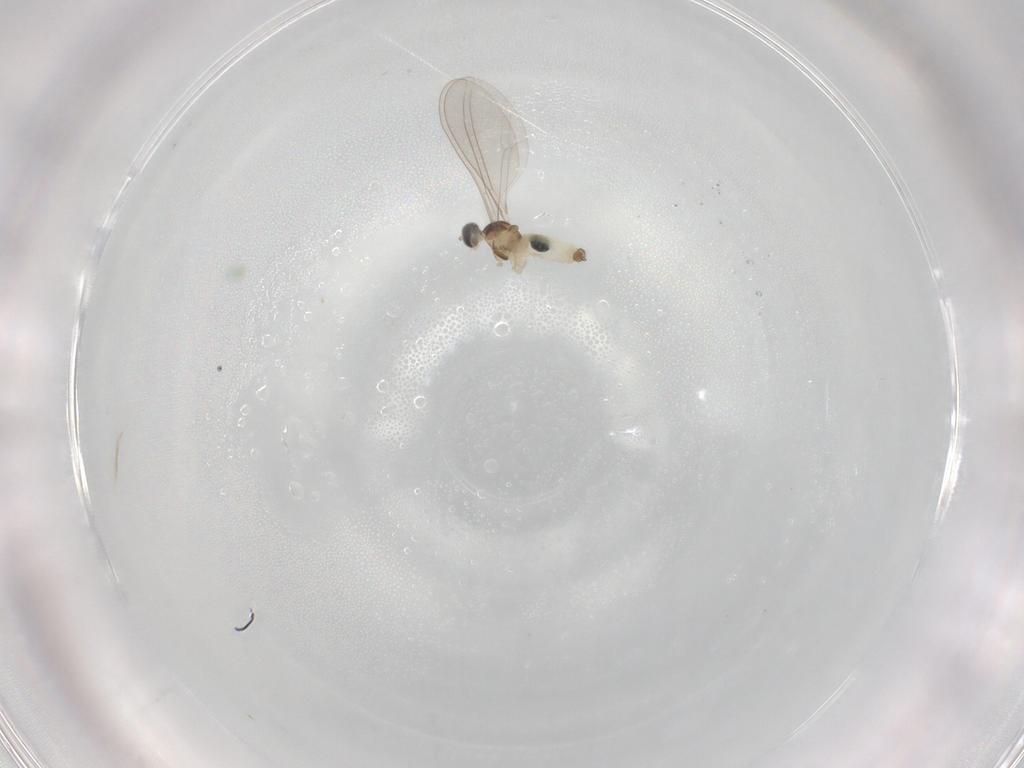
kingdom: Animalia
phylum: Arthropoda
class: Insecta
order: Diptera
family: Cecidomyiidae
